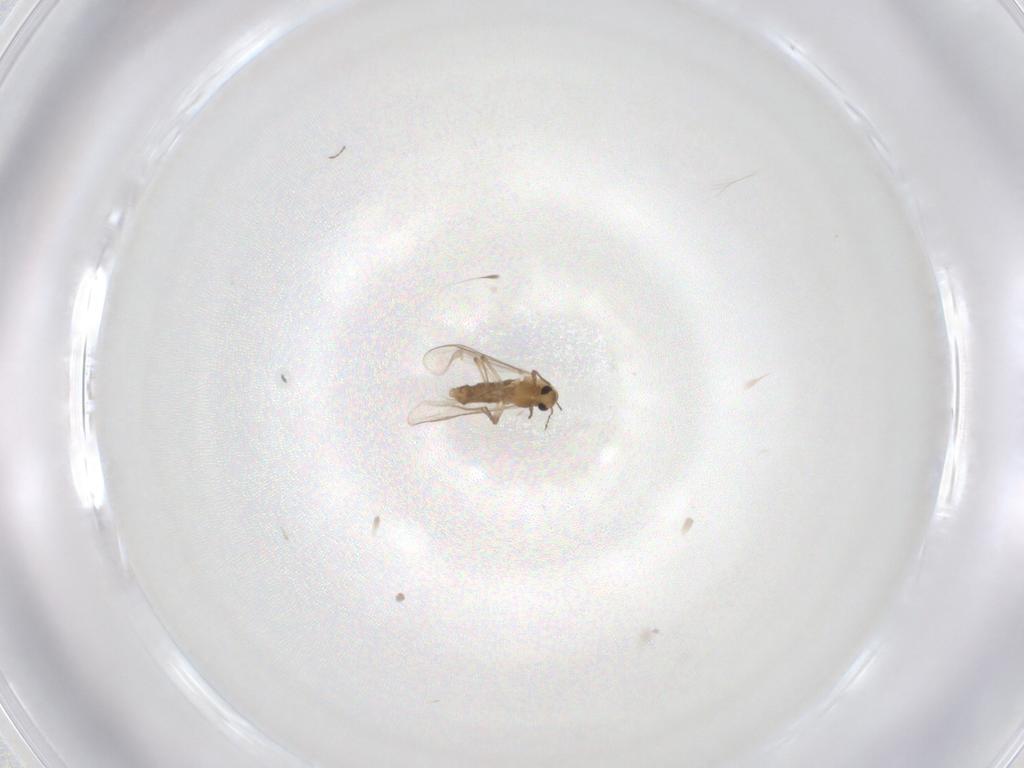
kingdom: Animalia
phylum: Arthropoda
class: Insecta
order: Diptera
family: Chironomidae
